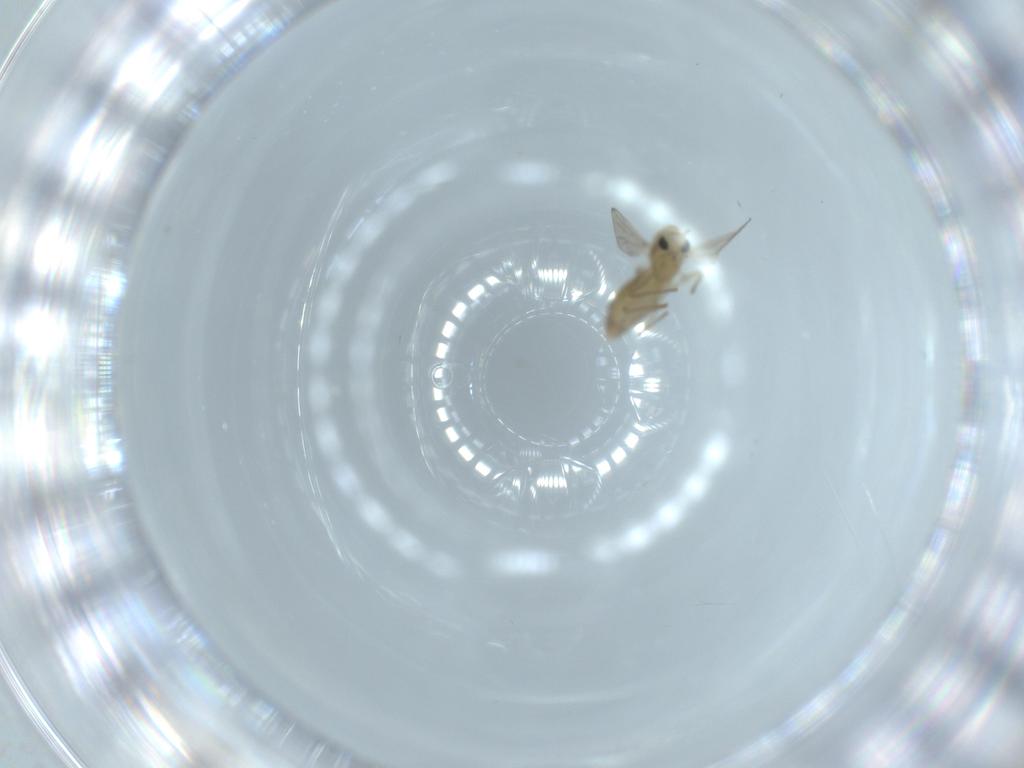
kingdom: Animalia
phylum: Arthropoda
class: Insecta
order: Diptera
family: Chironomidae
